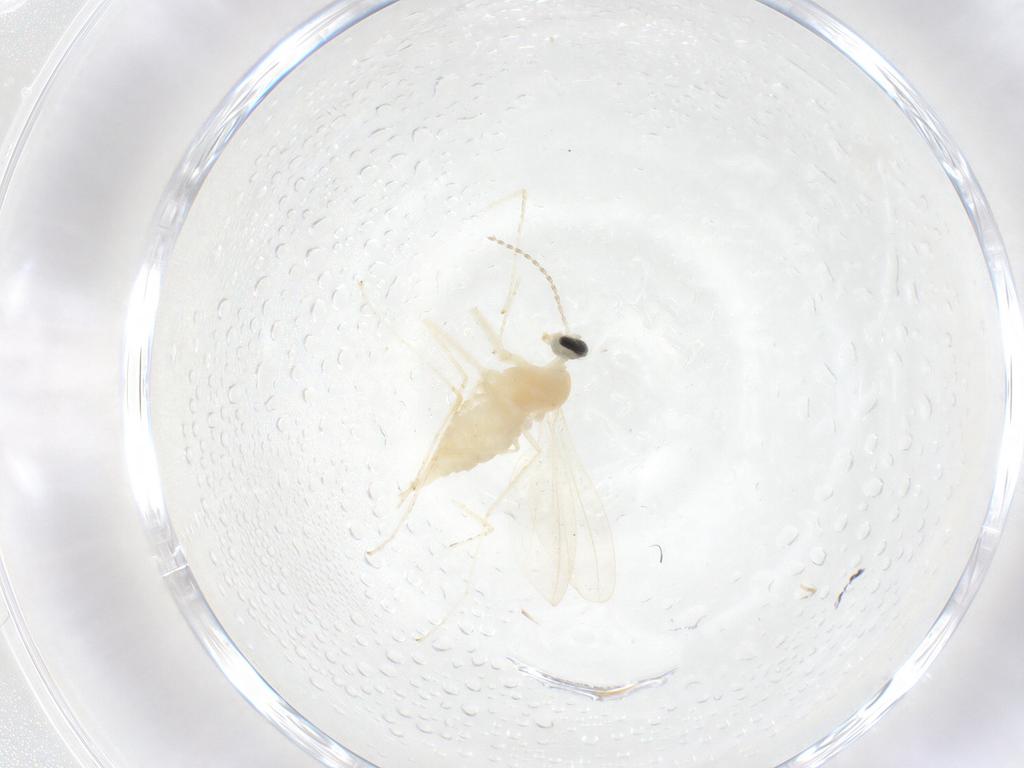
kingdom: Animalia
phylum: Arthropoda
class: Insecta
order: Diptera
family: Cecidomyiidae
